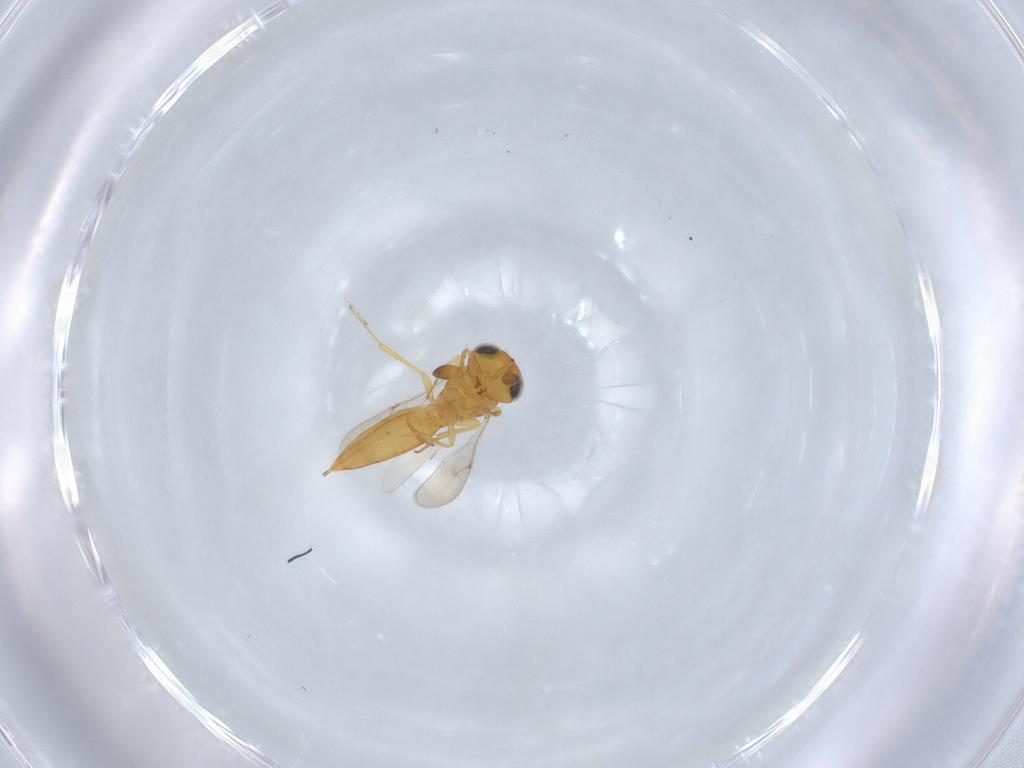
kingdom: Animalia
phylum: Arthropoda
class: Insecta
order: Hymenoptera
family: Scelionidae
